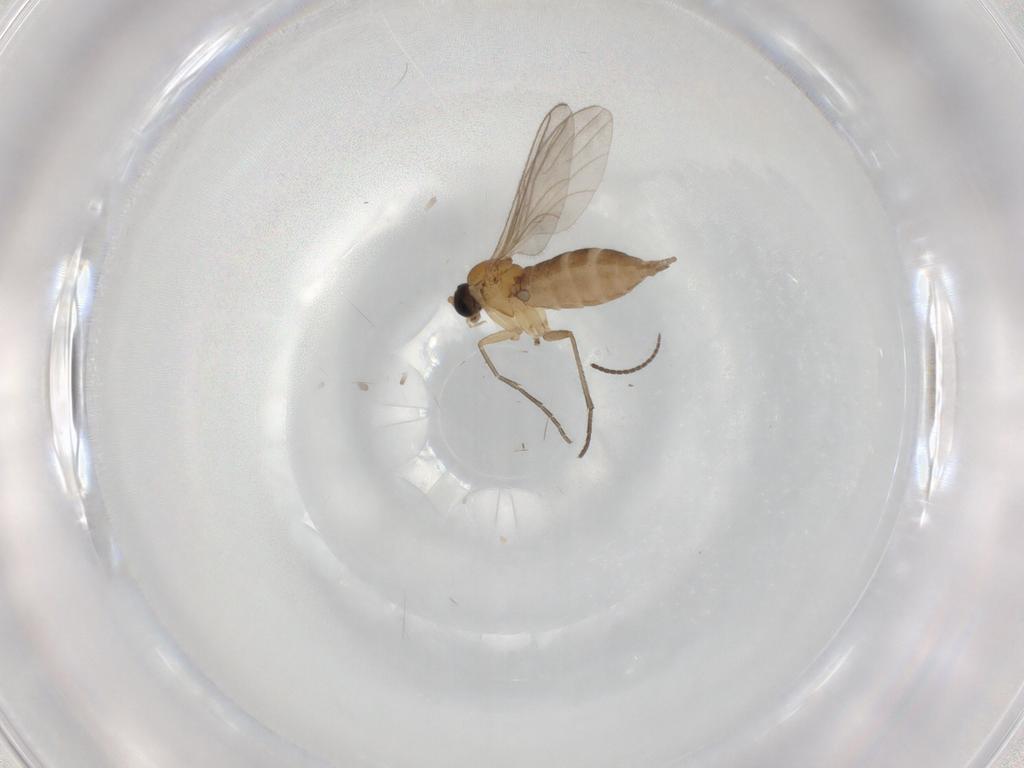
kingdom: Animalia
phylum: Arthropoda
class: Insecta
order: Diptera
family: Sciaridae
